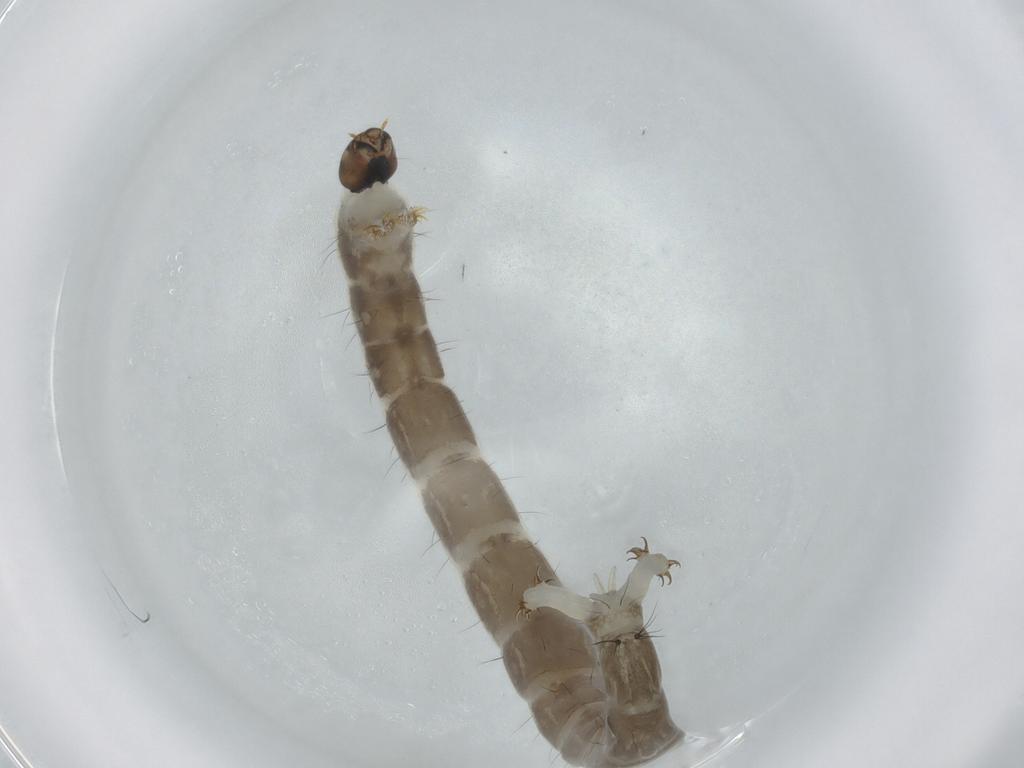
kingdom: Animalia
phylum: Arthropoda
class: Insecta
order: Diptera
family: Chironomidae
